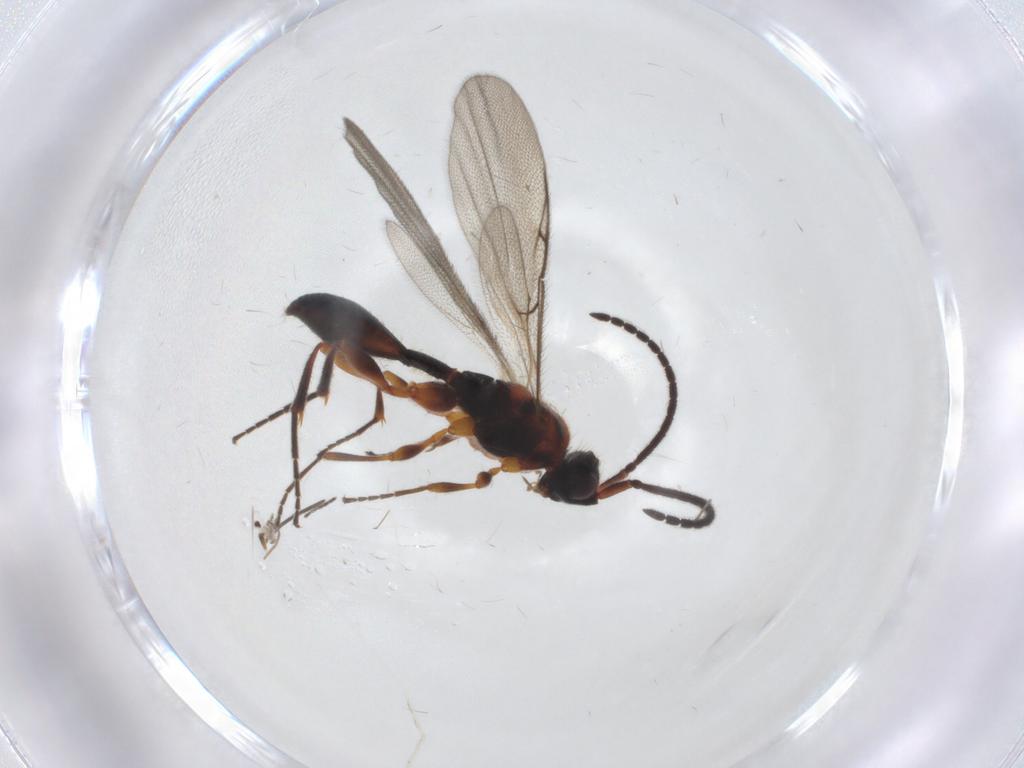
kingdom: Animalia
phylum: Arthropoda
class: Insecta
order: Hymenoptera
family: Diapriidae
